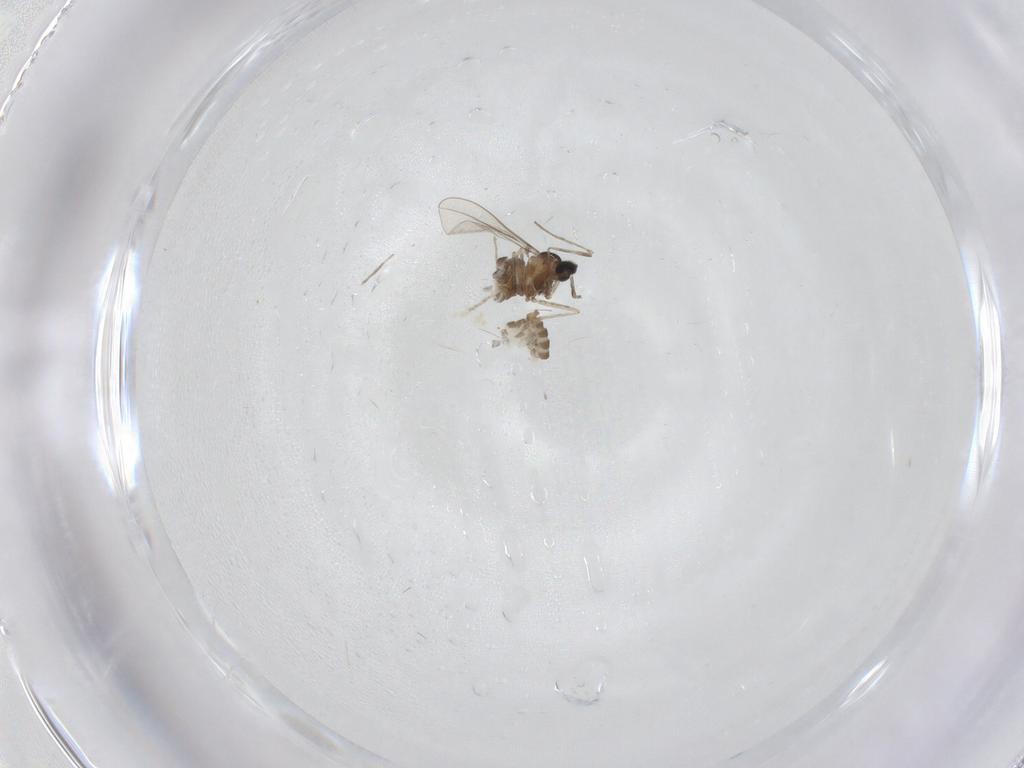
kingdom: Animalia
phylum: Arthropoda
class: Insecta
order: Diptera
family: Cecidomyiidae
